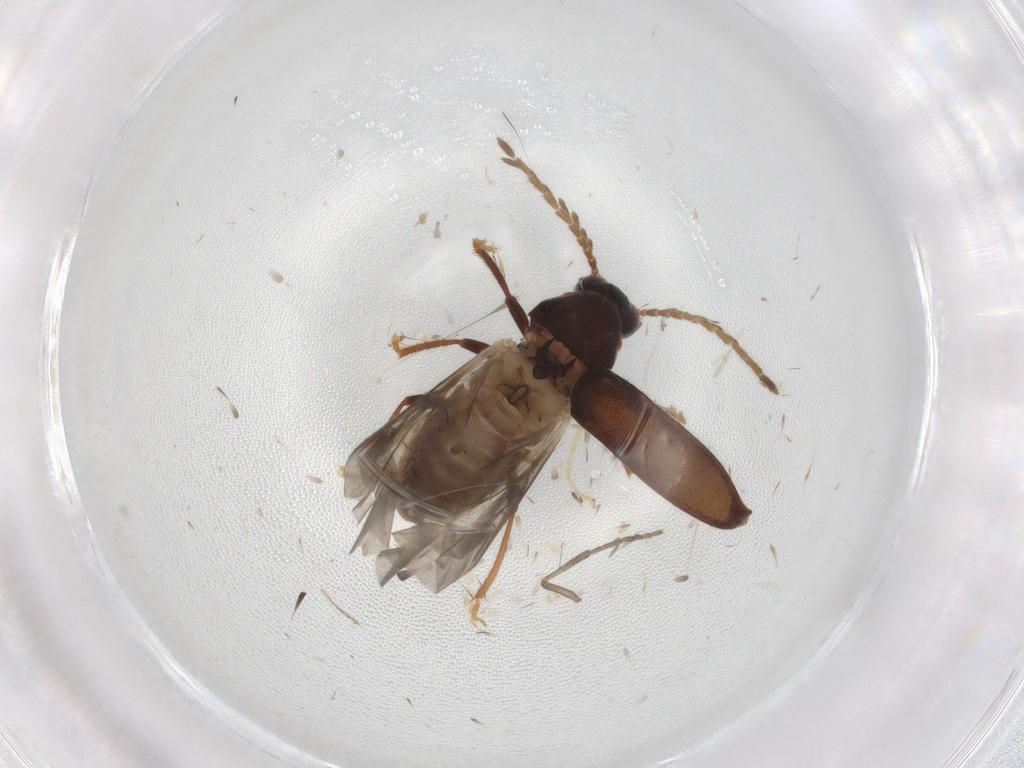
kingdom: Animalia
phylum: Arthropoda
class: Insecta
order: Coleoptera
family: Ptilodactylidae
